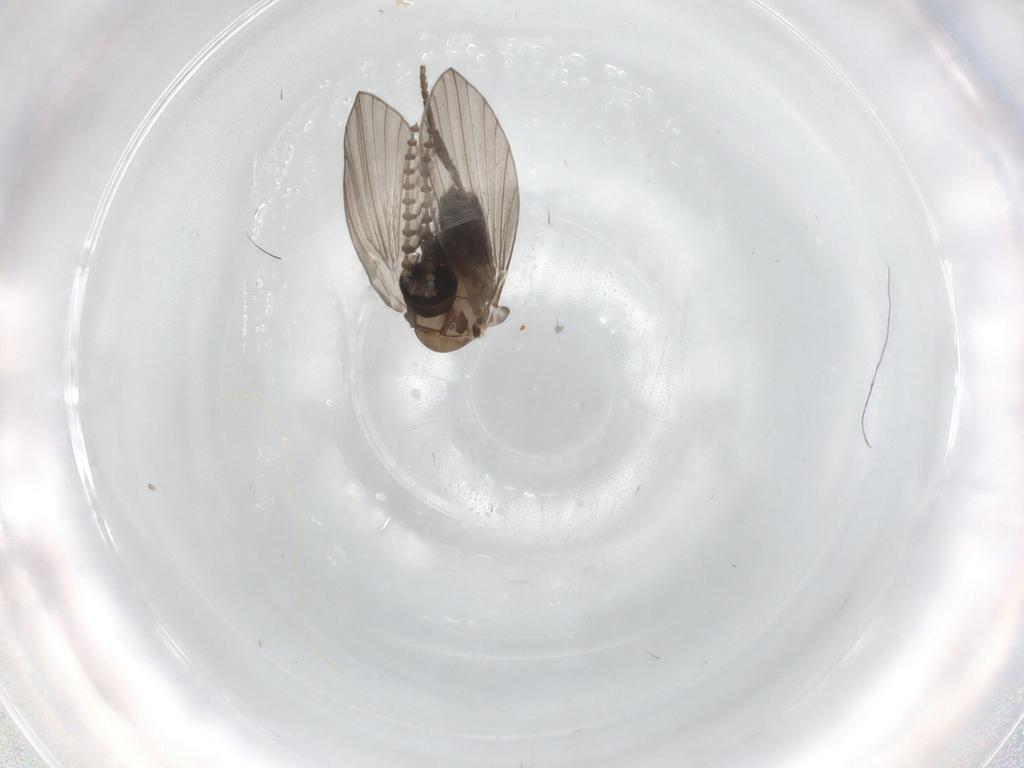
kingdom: Animalia
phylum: Arthropoda
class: Insecta
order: Diptera
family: Psychodidae
